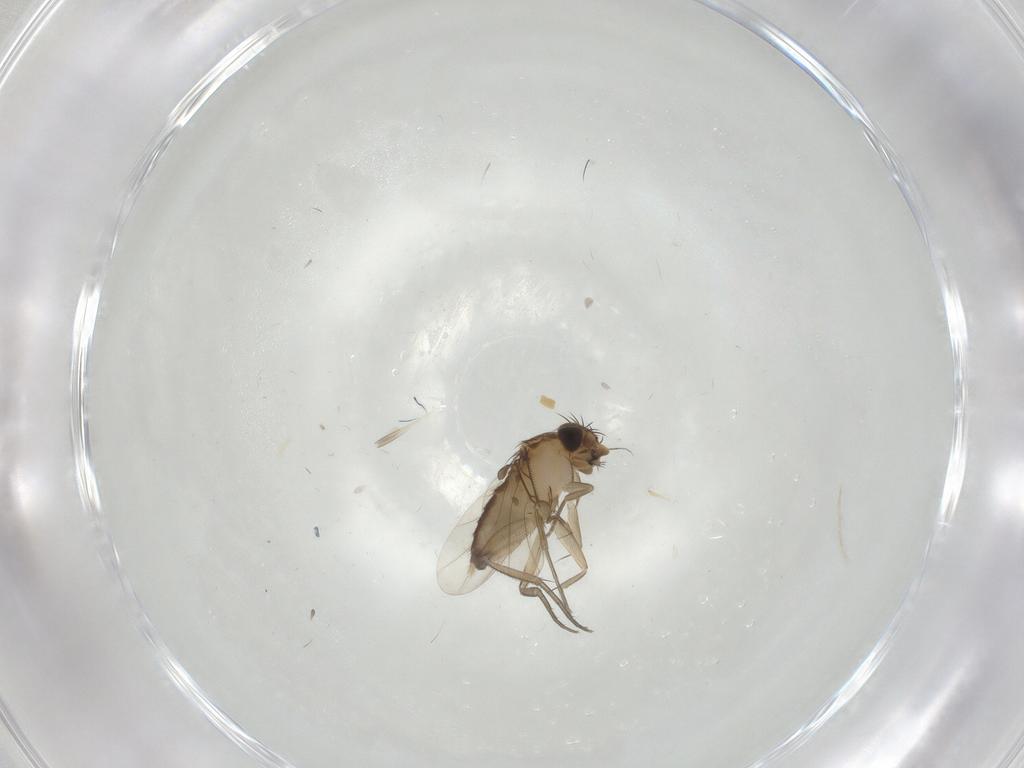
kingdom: Animalia
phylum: Arthropoda
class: Insecta
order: Diptera
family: Phoridae
